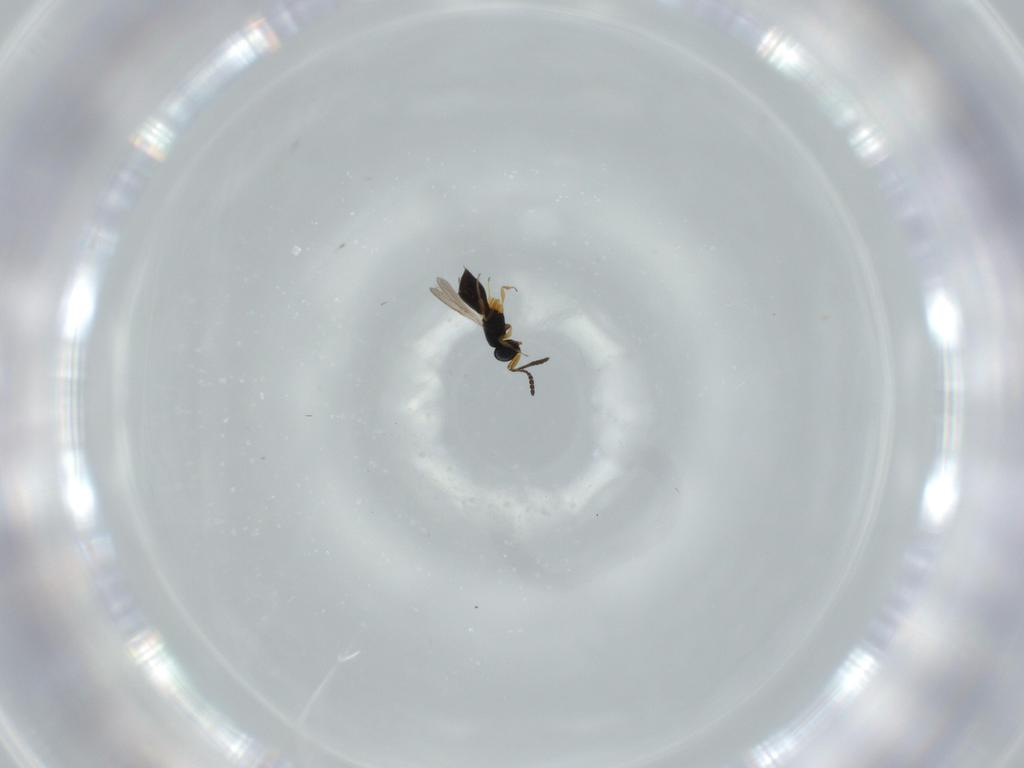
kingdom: Animalia
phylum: Arthropoda
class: Insecta
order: Hymenoptera
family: Scelionidae
